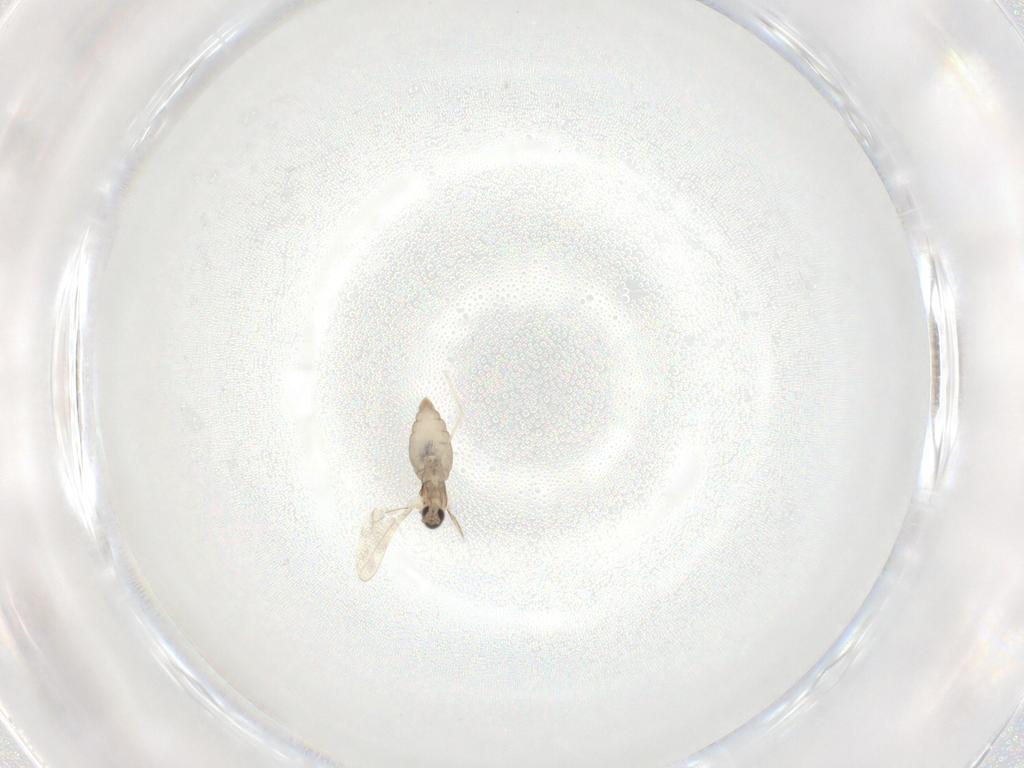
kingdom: Animalia
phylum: Arthropoda
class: Insecta
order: Diptera
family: Cecidomyiidae
